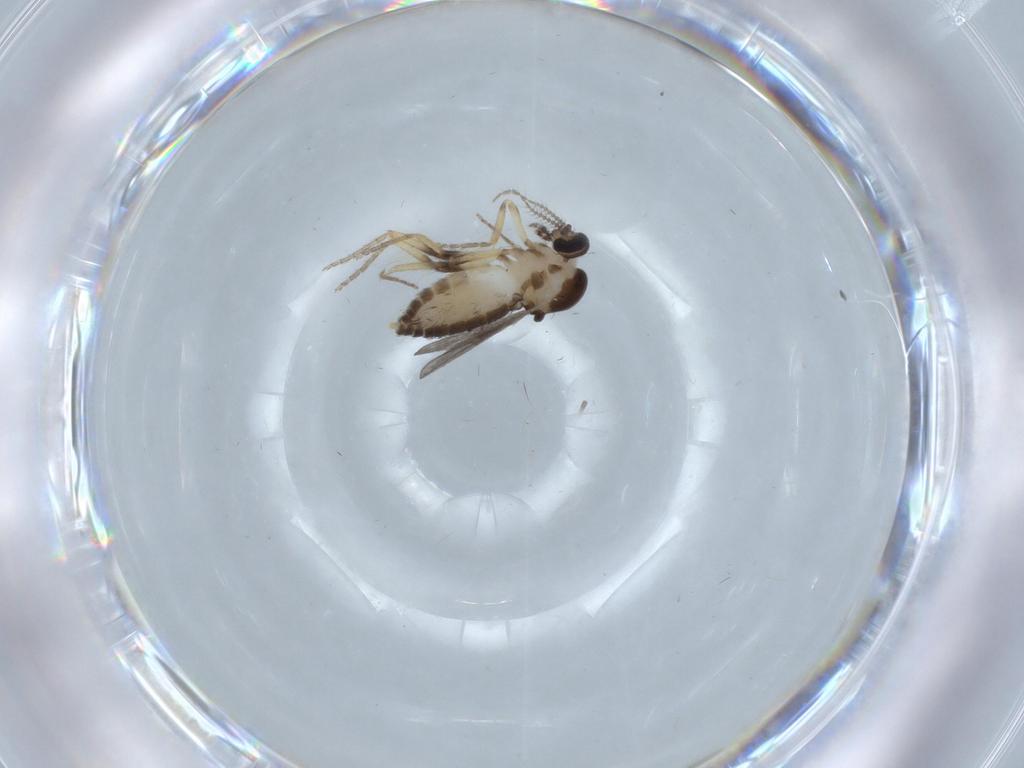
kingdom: Animalia
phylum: Arthropoda
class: Insecta
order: Diptera
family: Ceratopogonidae
